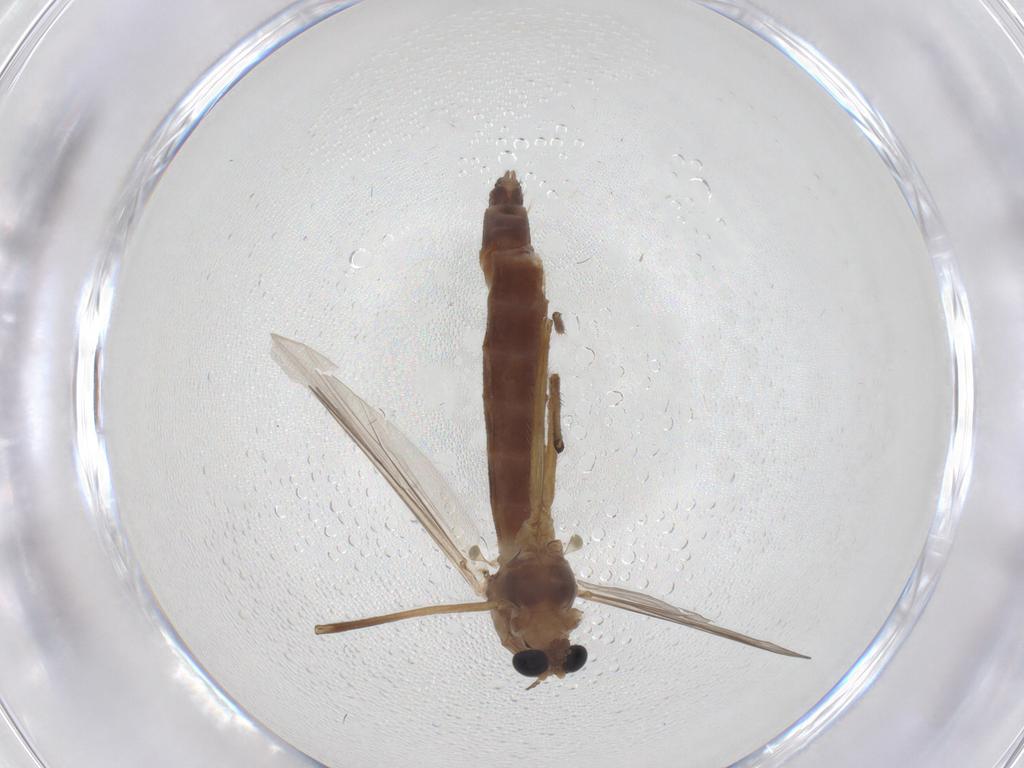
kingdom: Animalia
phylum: Arthropoda
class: Insecta
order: Diptera
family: Chironomidae
